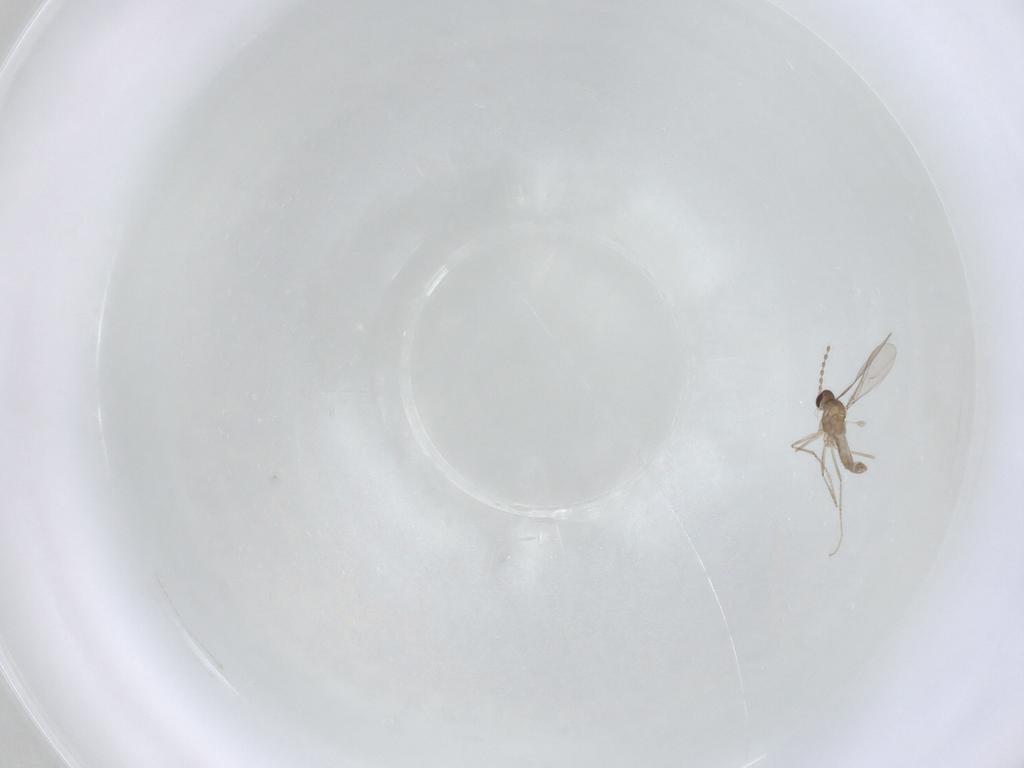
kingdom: Animalia
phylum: Arthropoda
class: Insecta
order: Diptera
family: Cecidomyiidae
